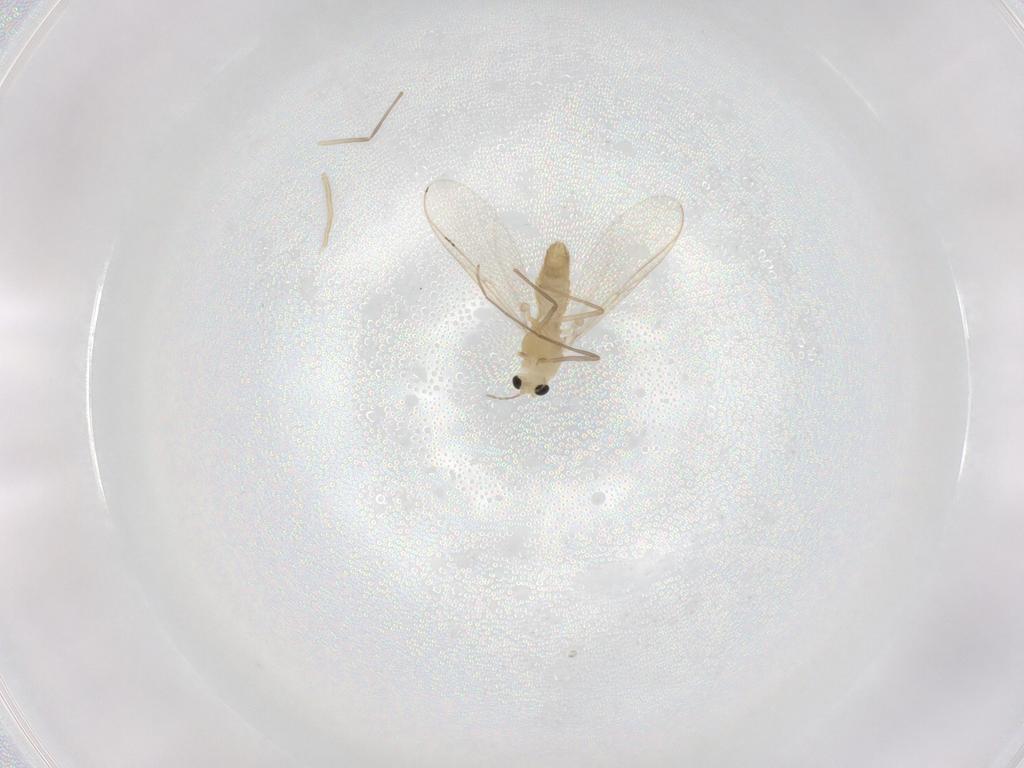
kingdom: Animalia
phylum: Arthropoda
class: Insecta
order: Diptera
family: Chironomidae
